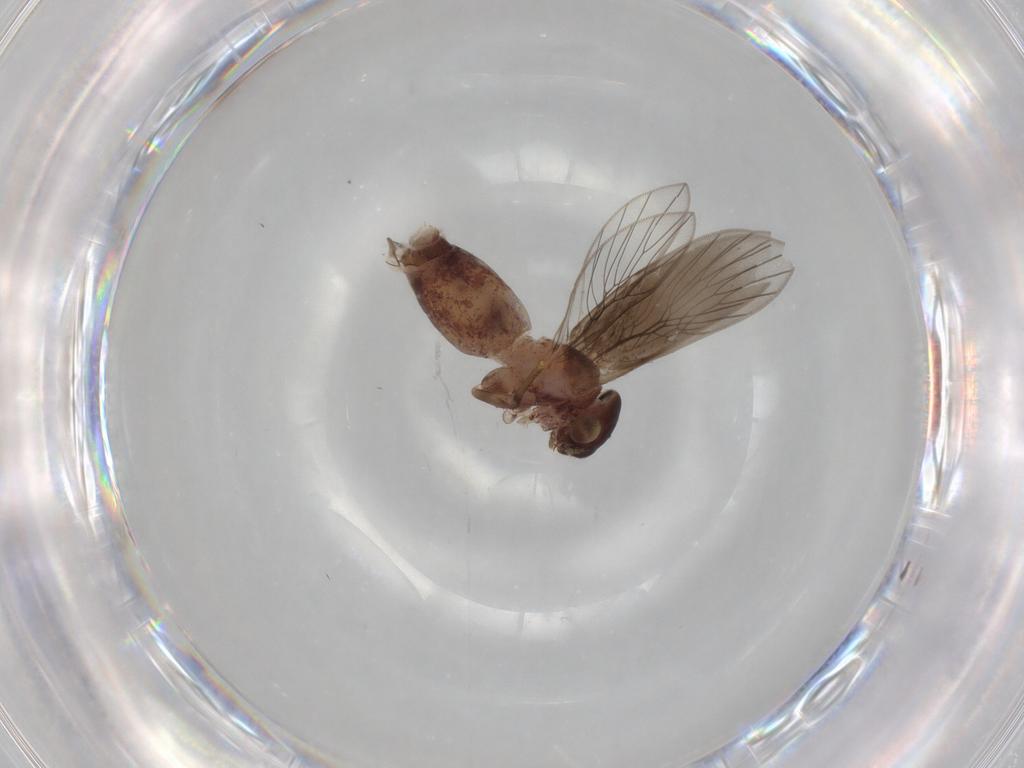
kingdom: Animalia
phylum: Arthropoda
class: Insecta
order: Psocodea
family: Lepidopsocidae
